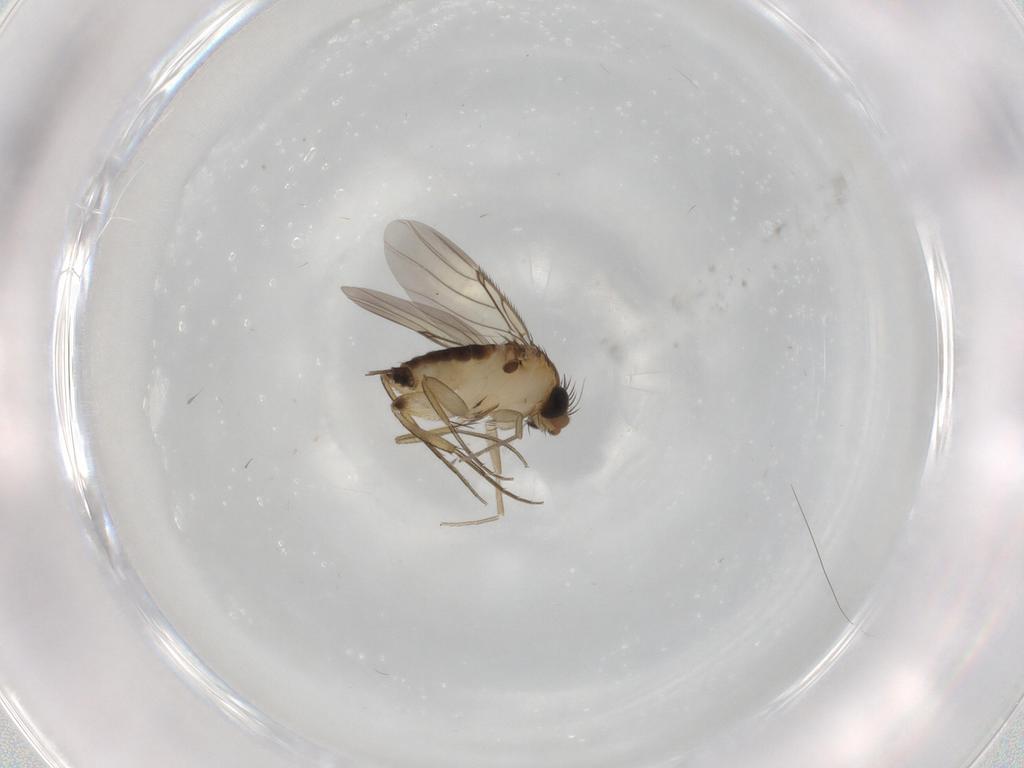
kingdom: Animalia
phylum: Arthropoda
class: Insecta
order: Diptera
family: Phoridae
